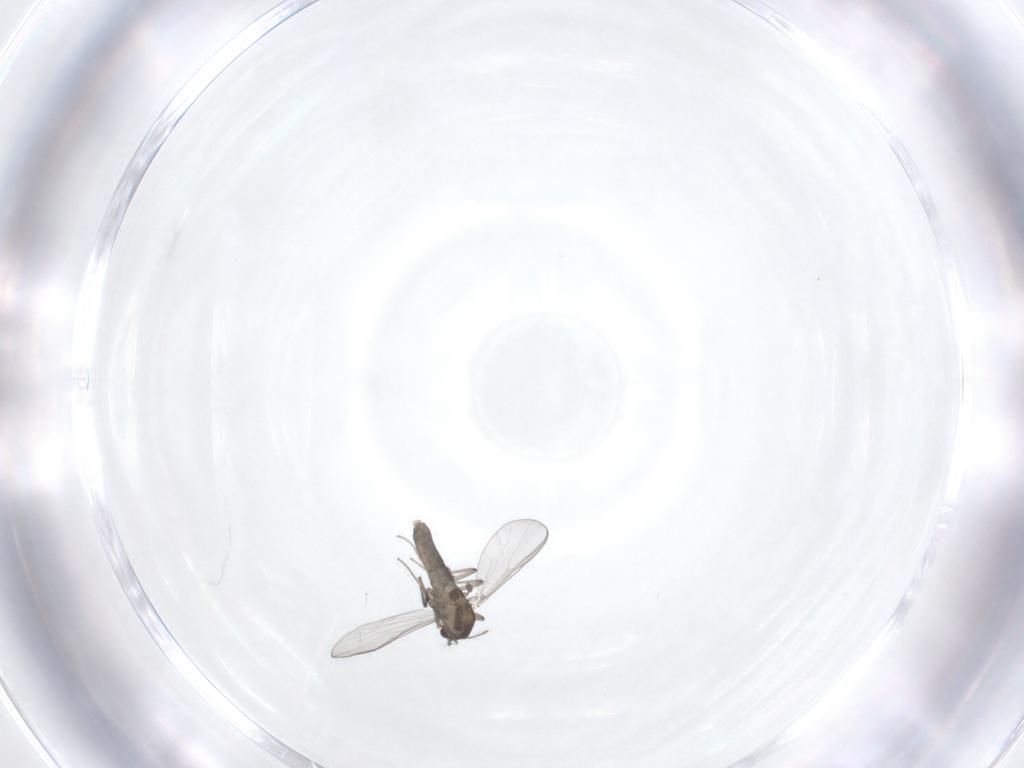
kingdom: Animalia
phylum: Arthropoda
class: Insecta
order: Diptera
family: Chironomidae
